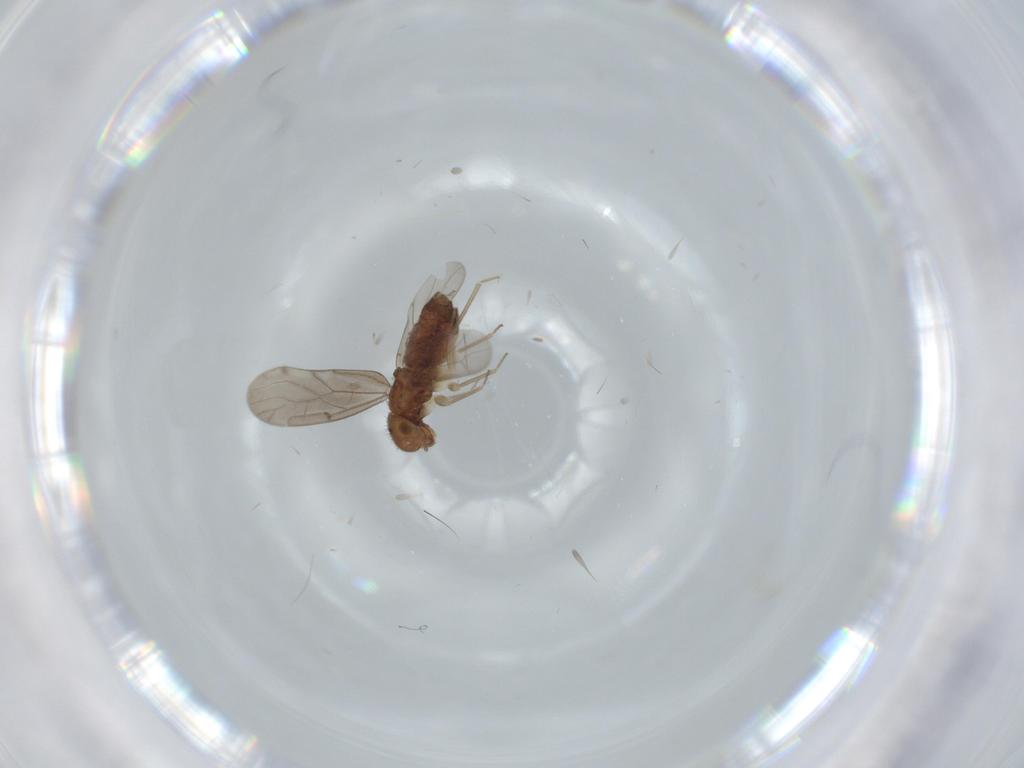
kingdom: Animalia
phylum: Arthropoda
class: Insecta
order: Psocodea
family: Ectopsocidae
